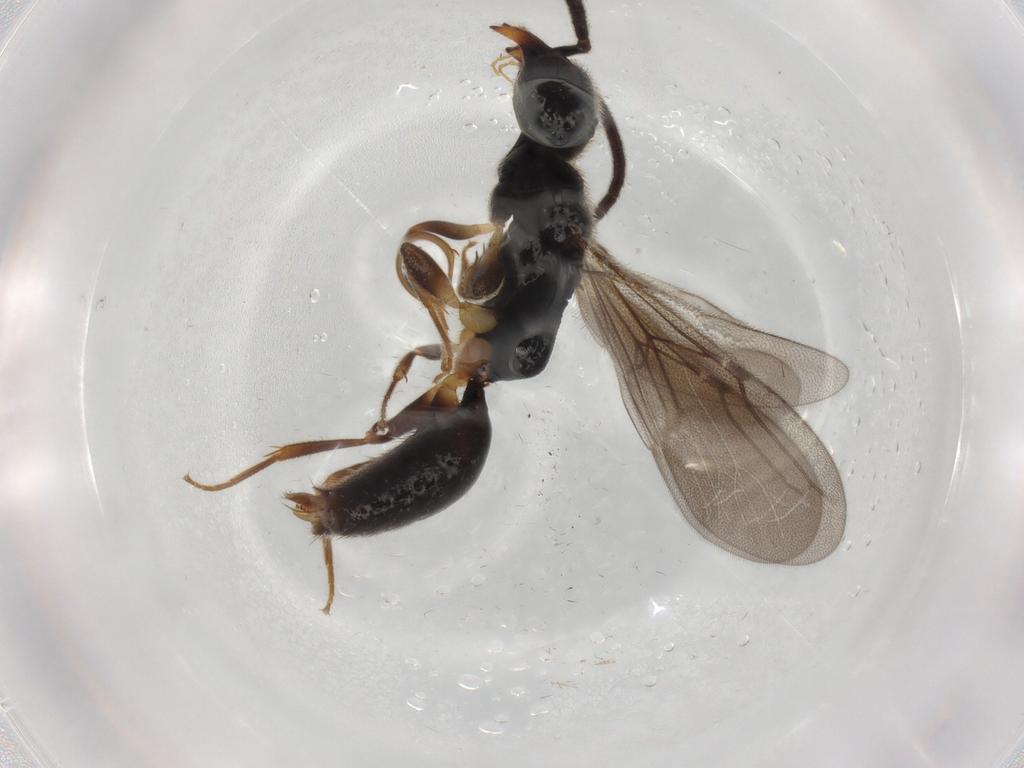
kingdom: Animalia
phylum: Arthropoda
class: Insecta
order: Hymenoptera
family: Bethylidae
